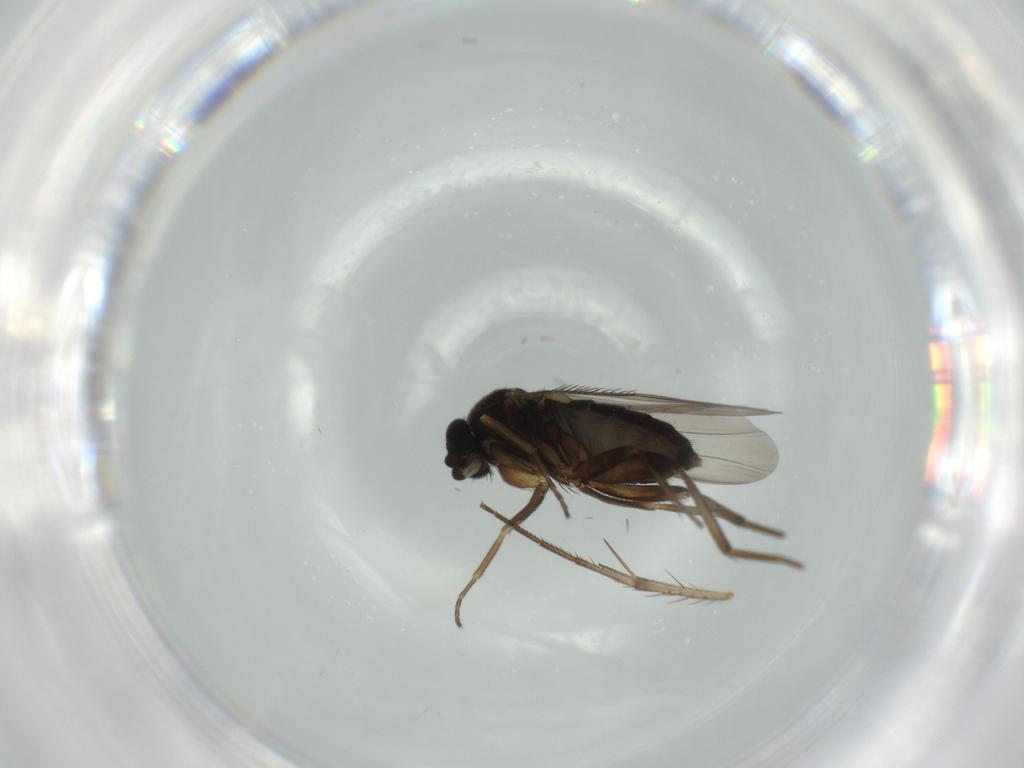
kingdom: Animalia
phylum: Arthropoda
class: Insecta
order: Diptera
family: Phoridae
